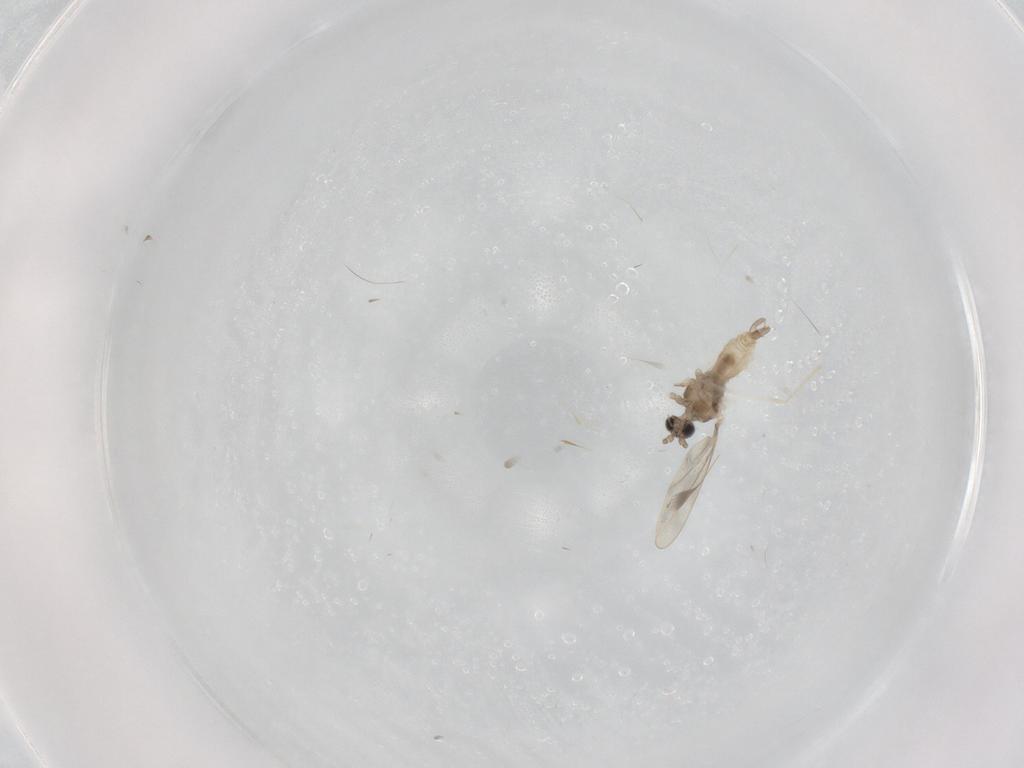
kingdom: Animalia
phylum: Arthropoda
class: Insecta
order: Diptera
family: Cecidomyiidae
